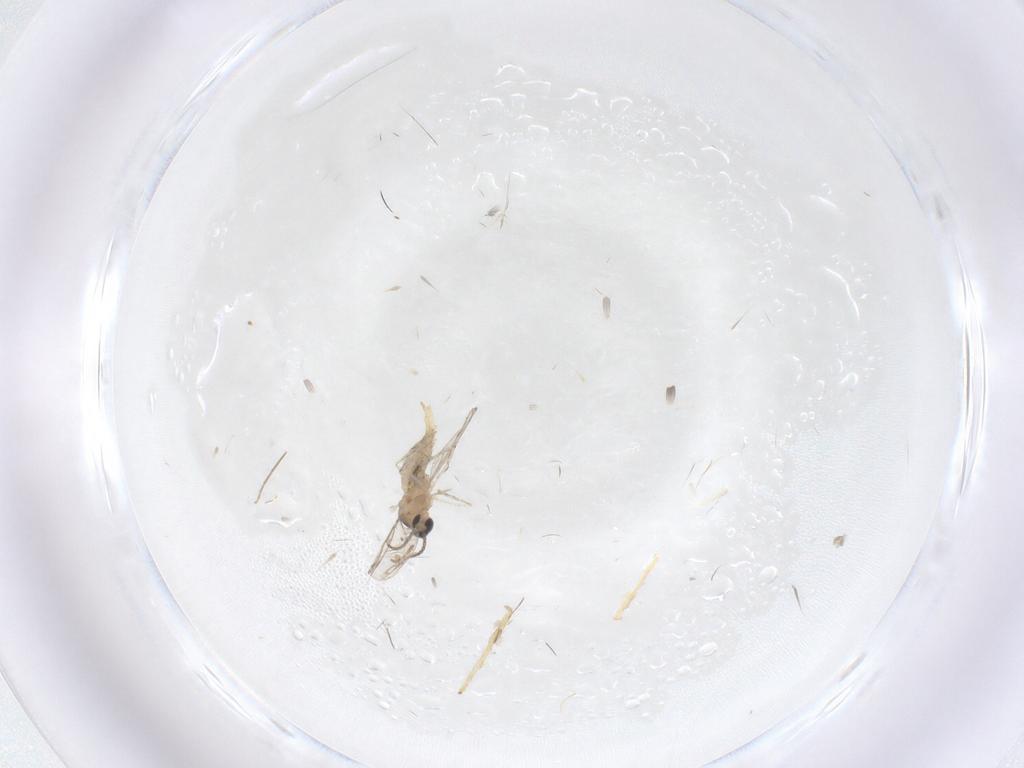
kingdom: Animalia
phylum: Arthropoda
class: Insecta
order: Diptera
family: Cecidomyiidae
